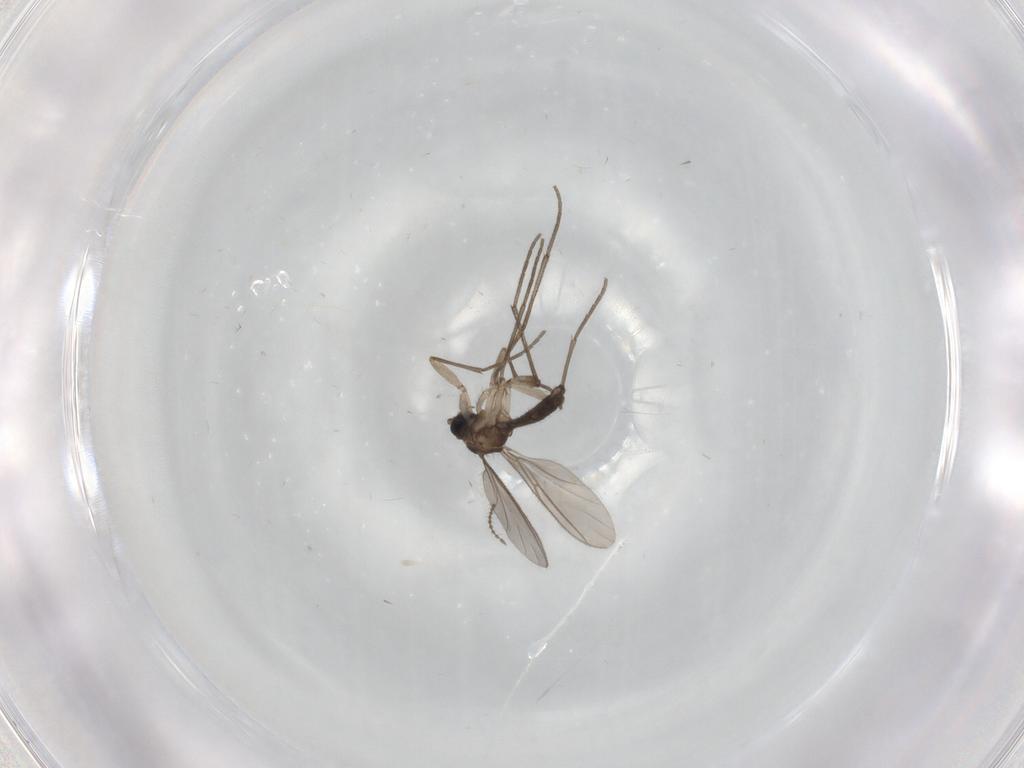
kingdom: Animalia
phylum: Arthropoda
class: Insecta
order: Diptera
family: Sciaridae
